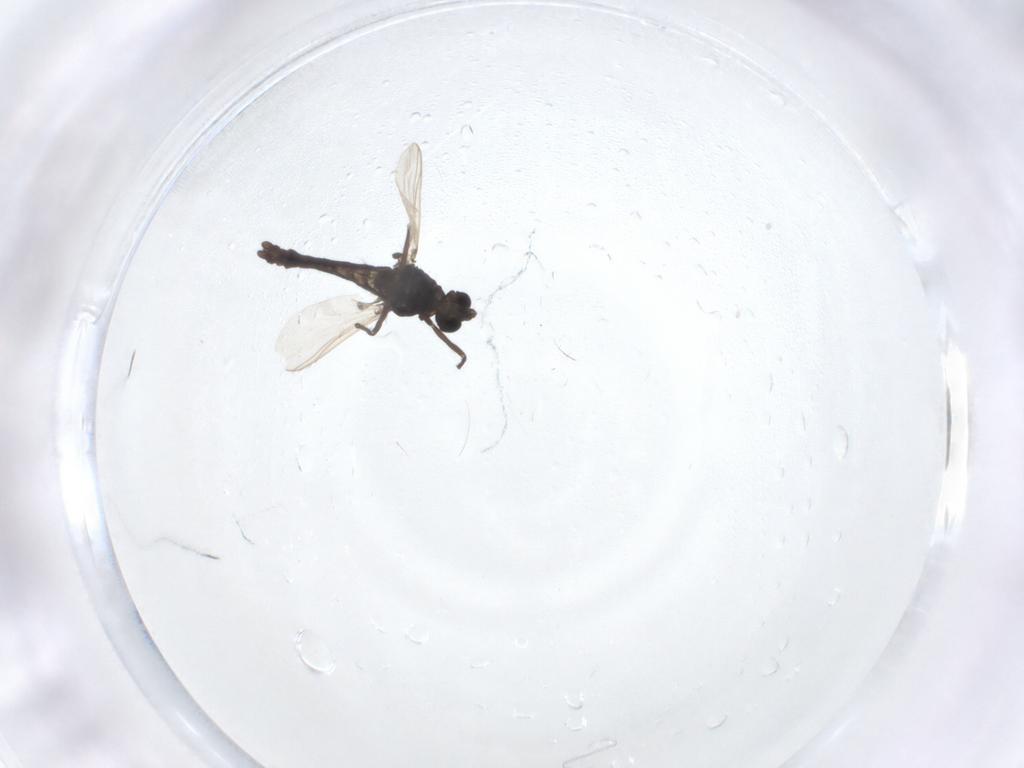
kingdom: Animalia
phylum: Arthropoda
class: Insecta
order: Diptera
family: Chironomidae
